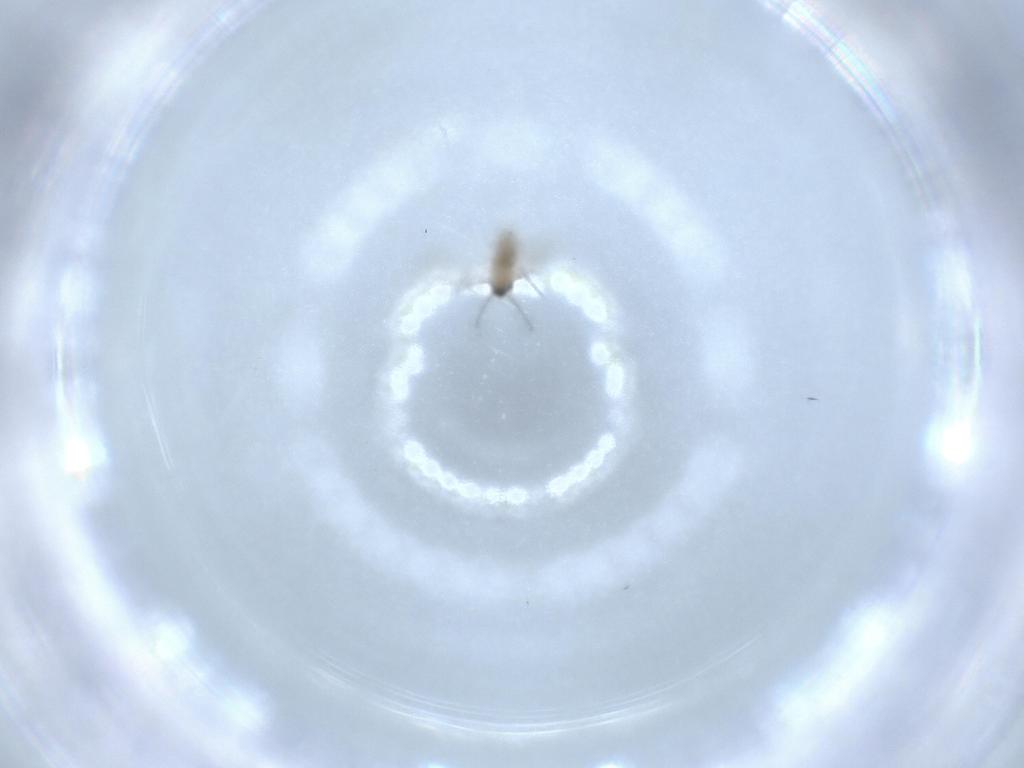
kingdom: Animalia
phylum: Arthropoda
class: Insecta
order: Diptera
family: Cecidomyiidae
